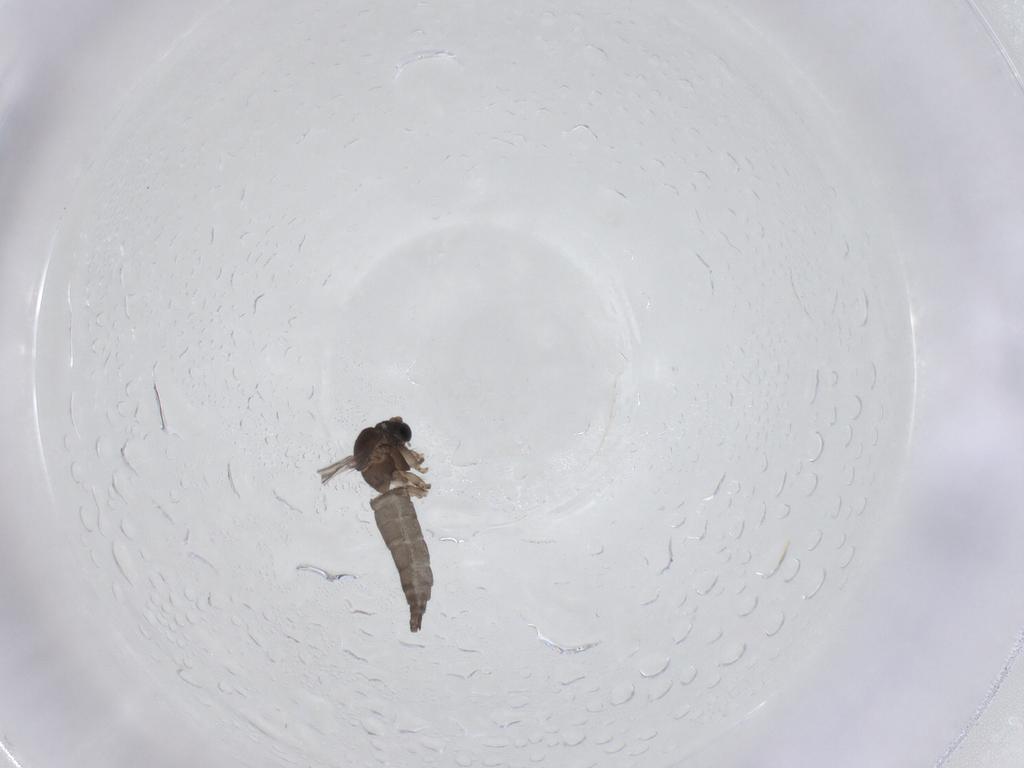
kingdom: Animalia
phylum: Arthropoda
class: Insecta
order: Diptera
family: Sciaridae
